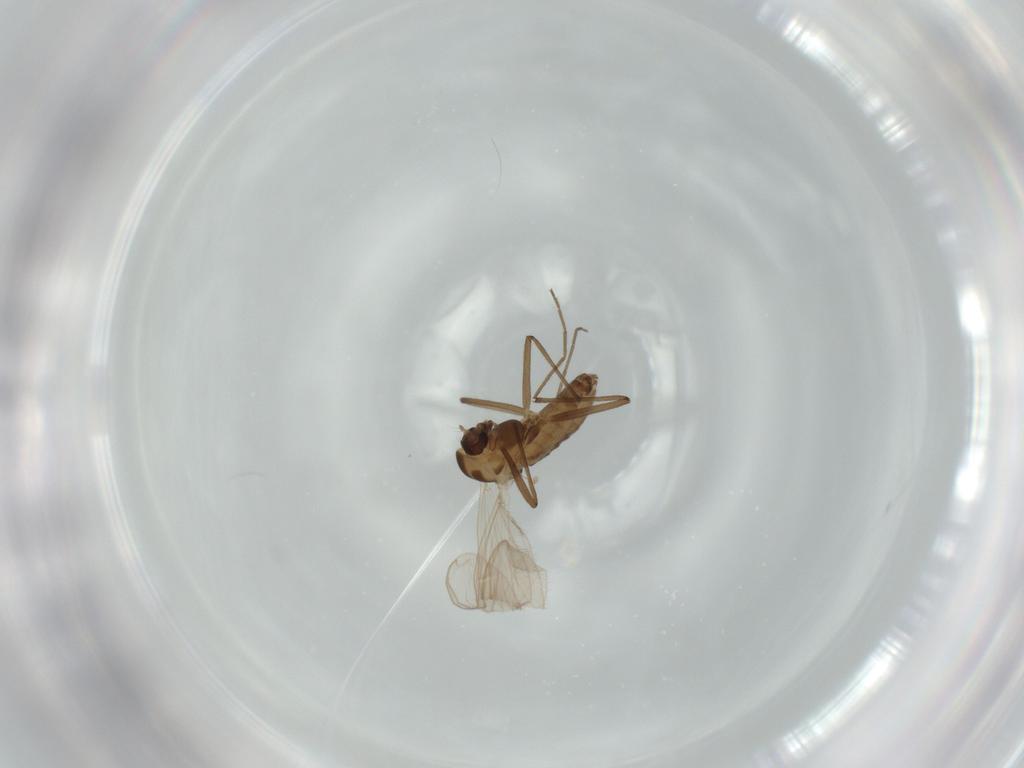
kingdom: Animalia
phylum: Arthropoda
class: Insecta
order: Diptera
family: Chironomidae
